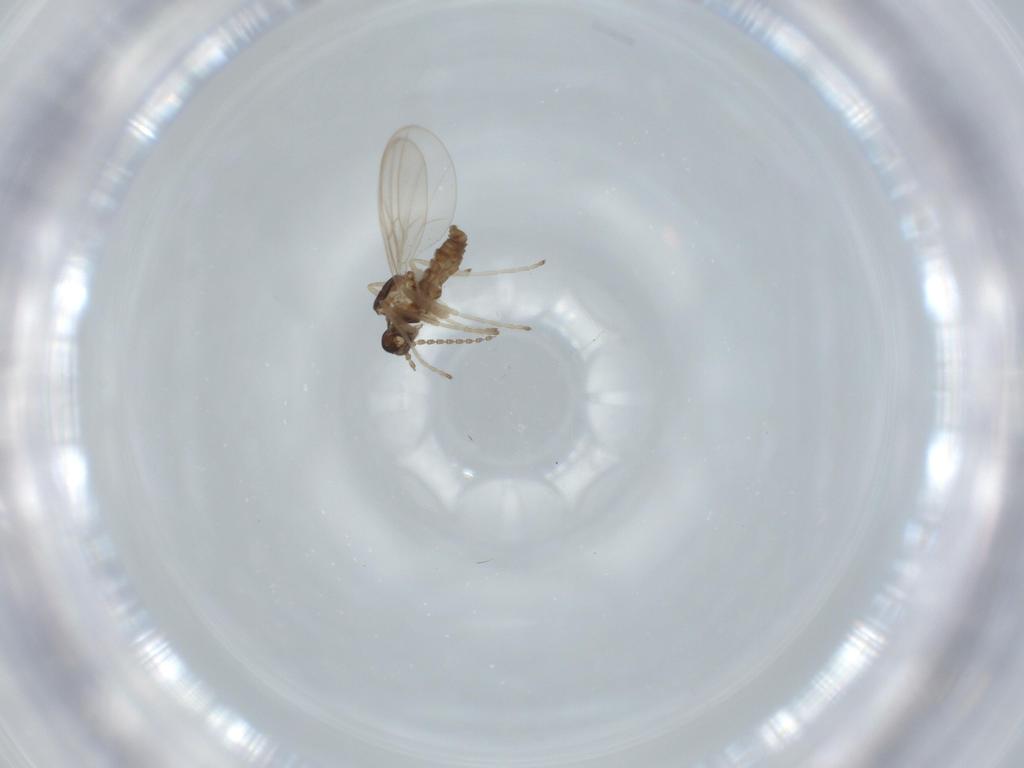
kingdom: Animalia
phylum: Arthropoda
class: Insecta
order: Diptera
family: Cecidomyiidae
